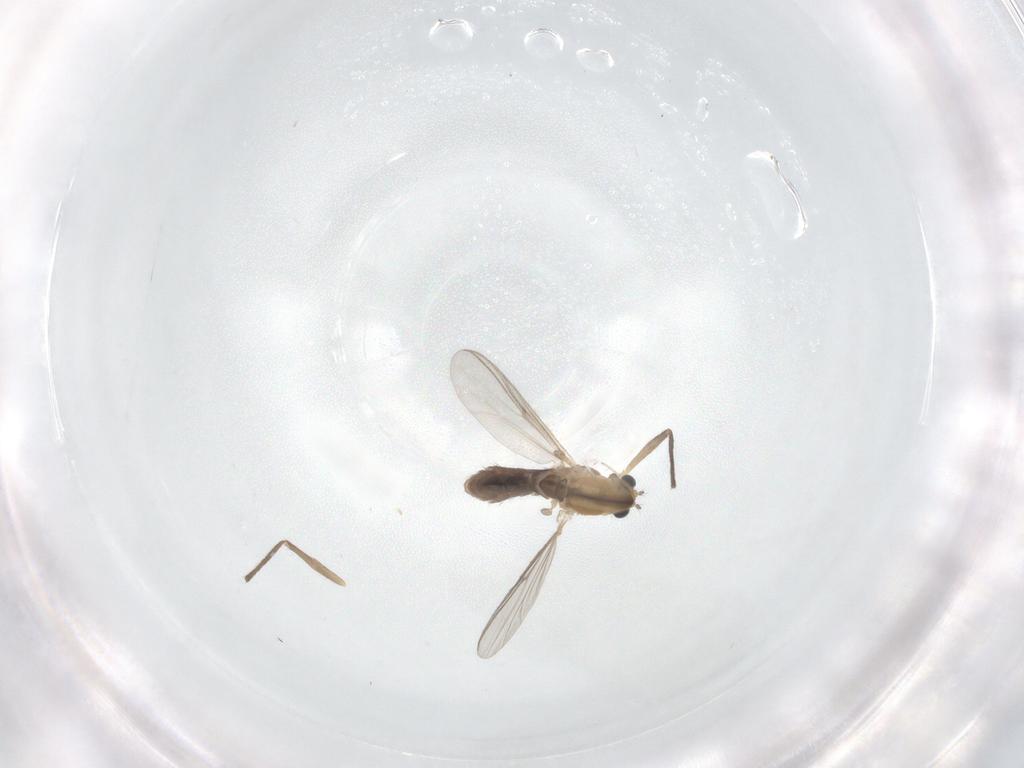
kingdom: Animalia
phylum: Arthropoda
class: Insecta
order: Diptera
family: Chironomidae
